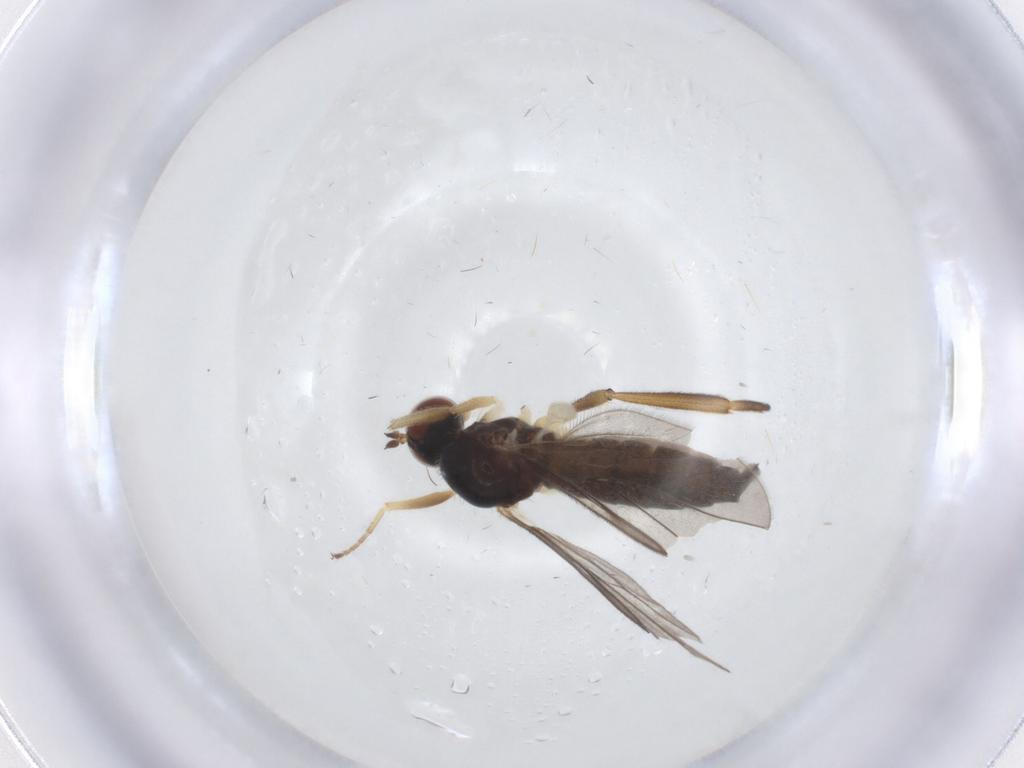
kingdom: Animalia
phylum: Arthropoda
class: Insecta
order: Diptera
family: Hybotidae
